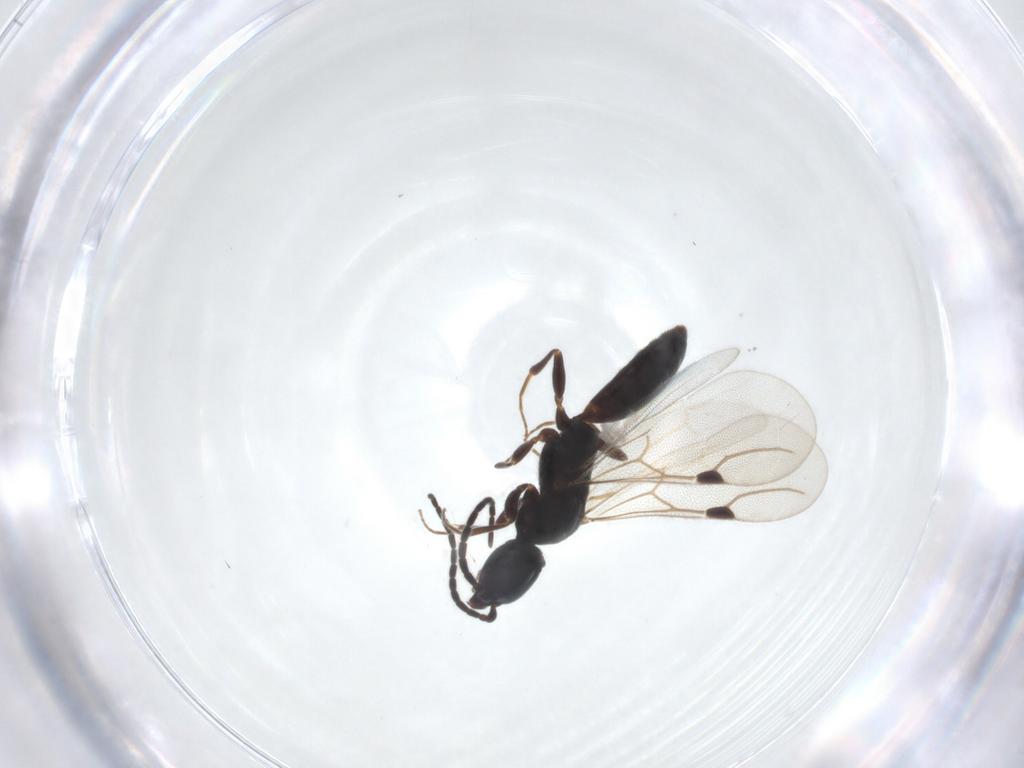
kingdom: Animalia
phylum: Arthropoda
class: Insecta
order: Hymenoptera
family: Bethylidae
